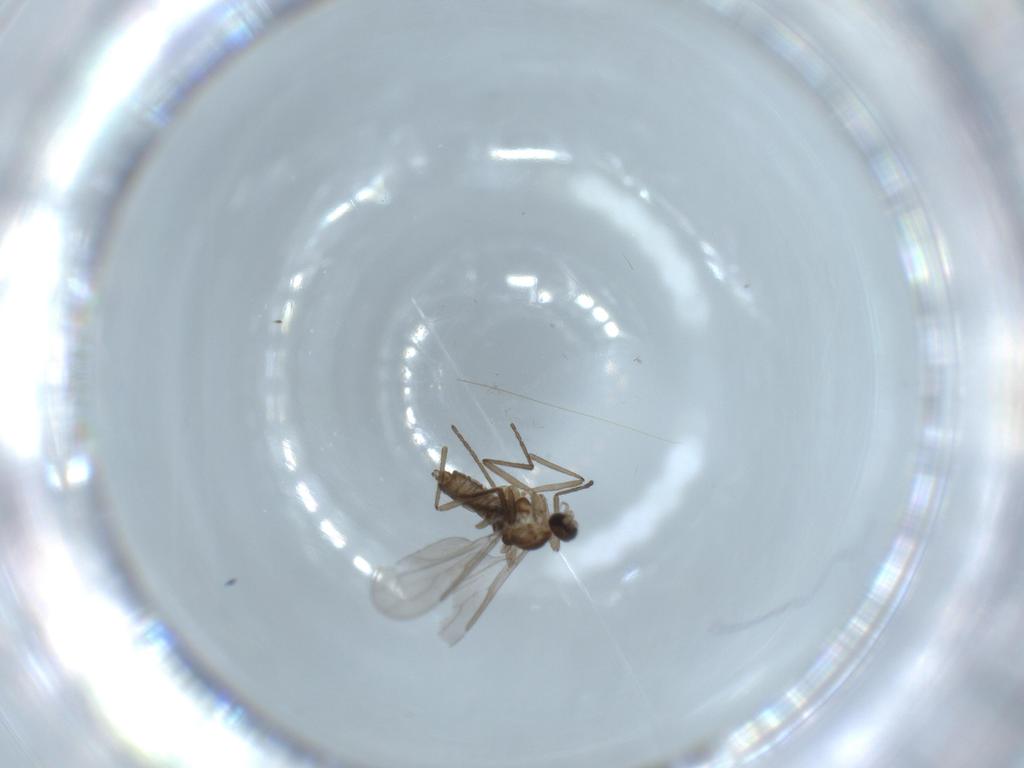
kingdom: Animalia
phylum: Arthropoda
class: Insecta
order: Diptera
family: Cecidomyiidae
